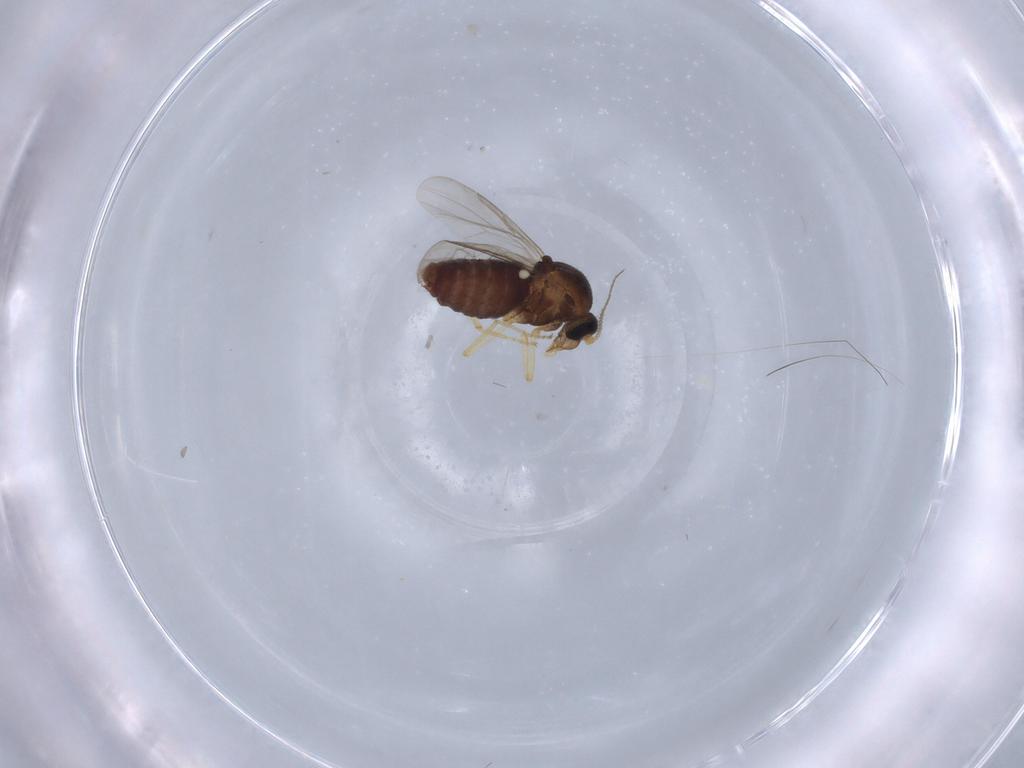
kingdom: Animalia
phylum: Arthropoda
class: Insecta
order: Diptera
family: Ceratopogonidae
